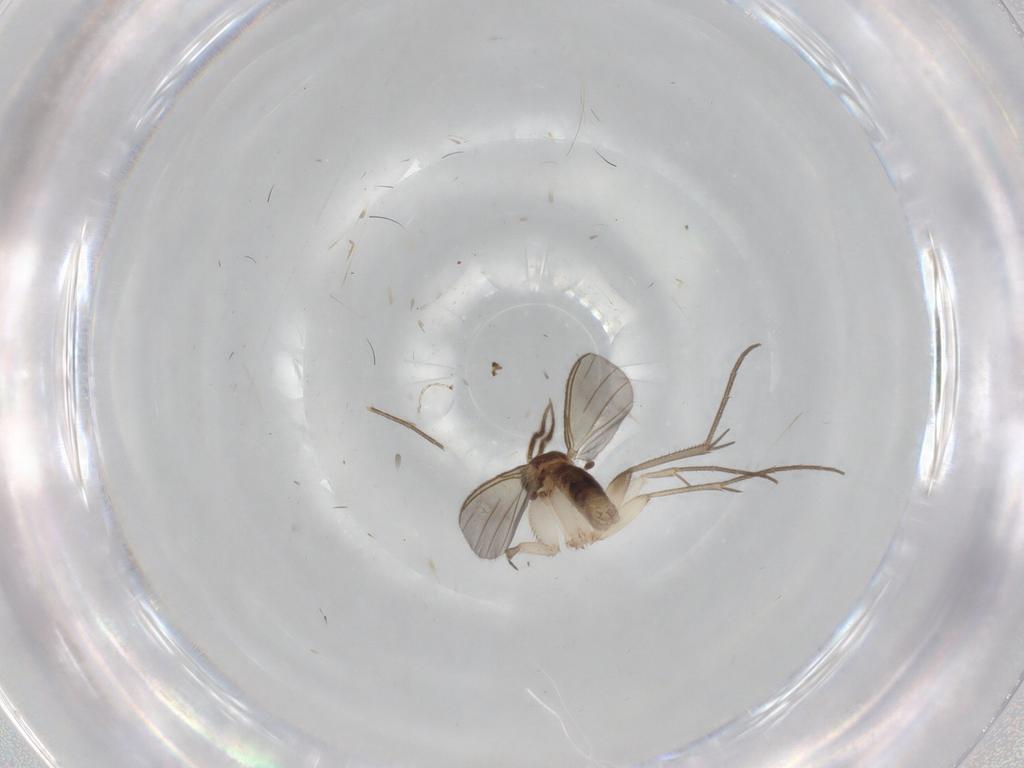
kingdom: Animalia
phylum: Arthropoda
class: Insecta
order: Diptera
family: Mycetophilidae
